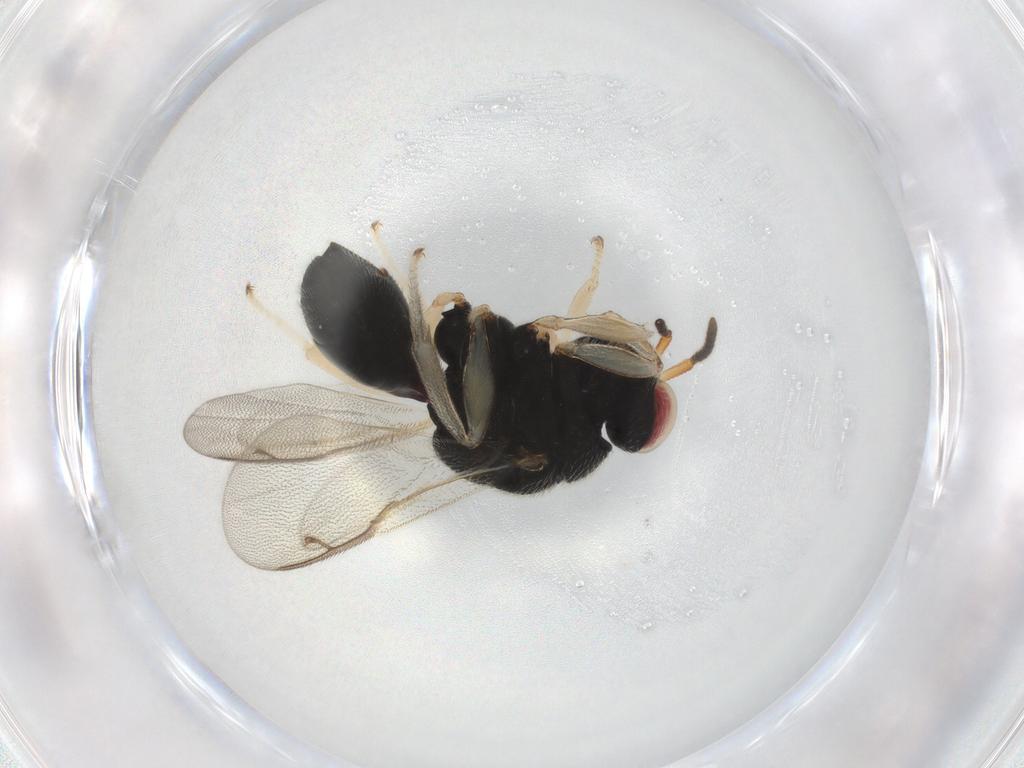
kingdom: Animalia
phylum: Arthropoda
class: Insecta
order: Hymenoptera
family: Eurytomidae
